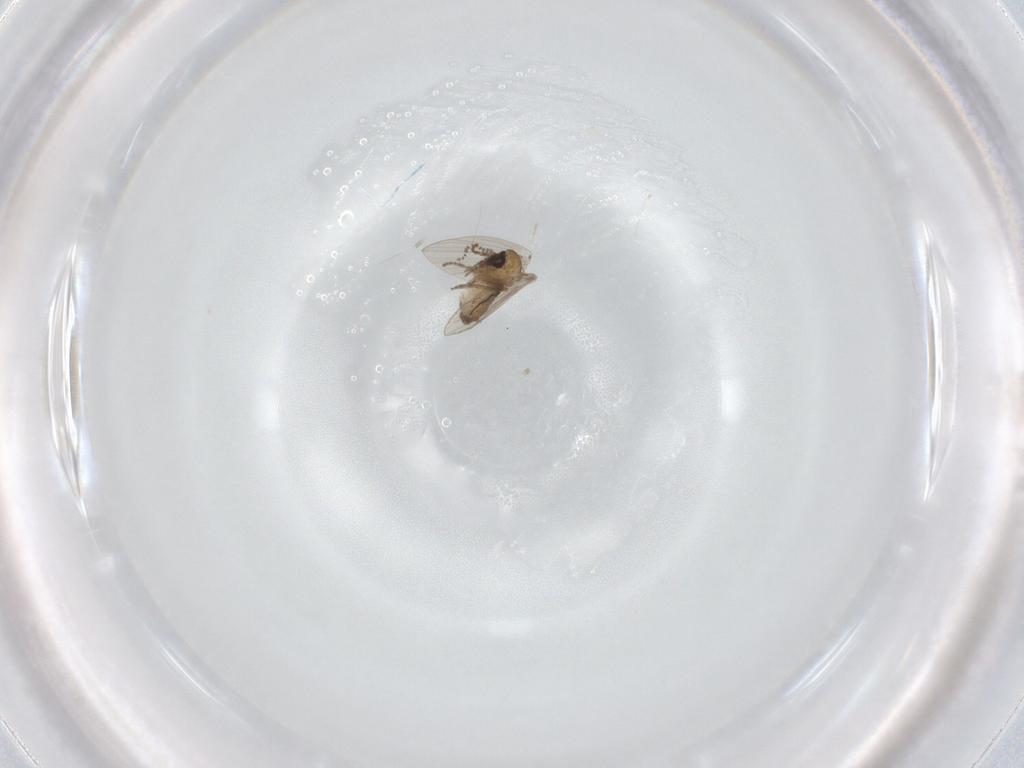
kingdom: Animalia
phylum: Arthropoda
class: Insecta
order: Diptera
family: Psychodidae
